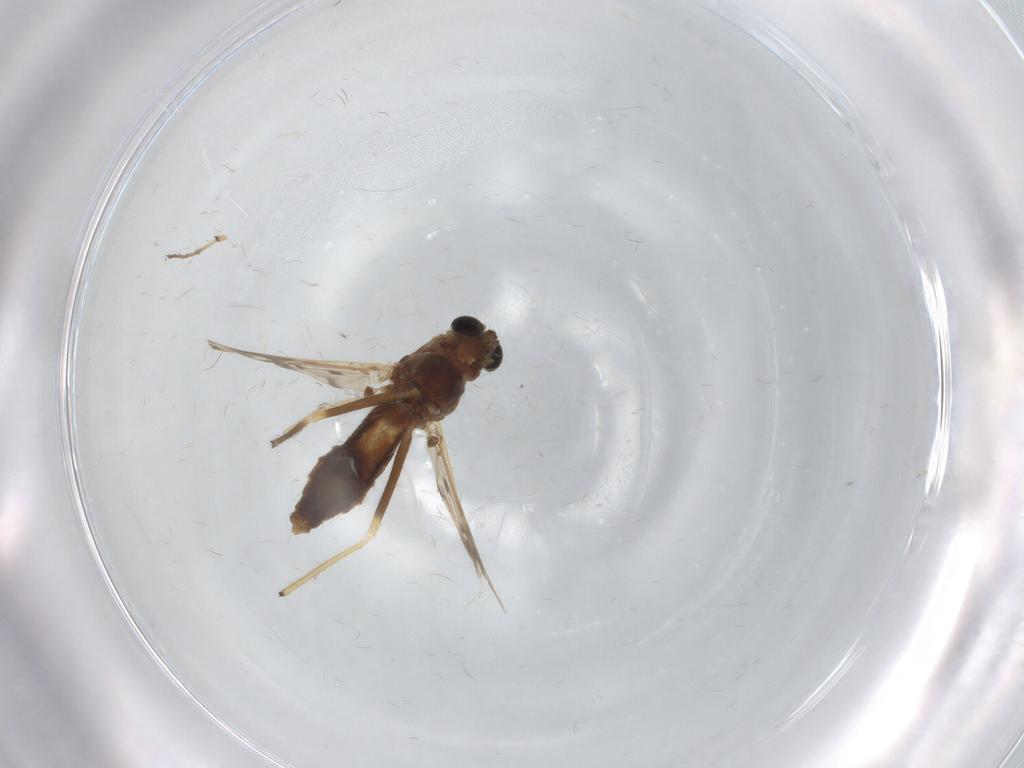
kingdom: Animalia
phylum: Arthropoda
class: Insecta
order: Diptera
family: Chironomidae
